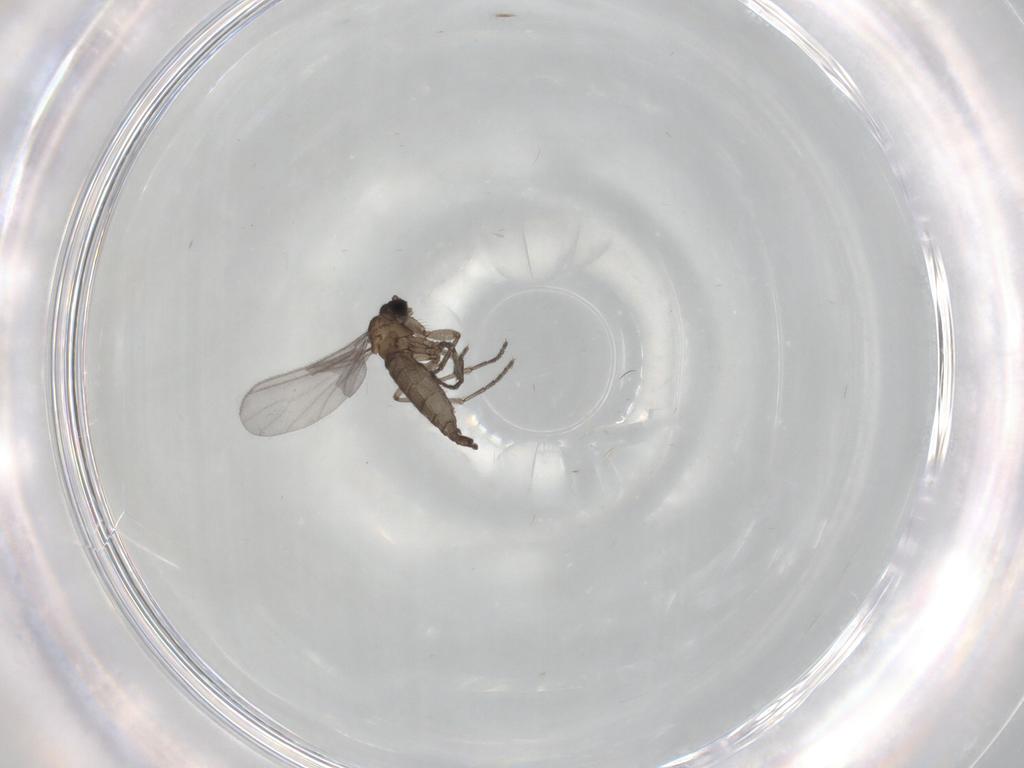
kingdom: Animalia
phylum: Arthropoda
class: Insecta
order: Diptera
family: Sciaridae
